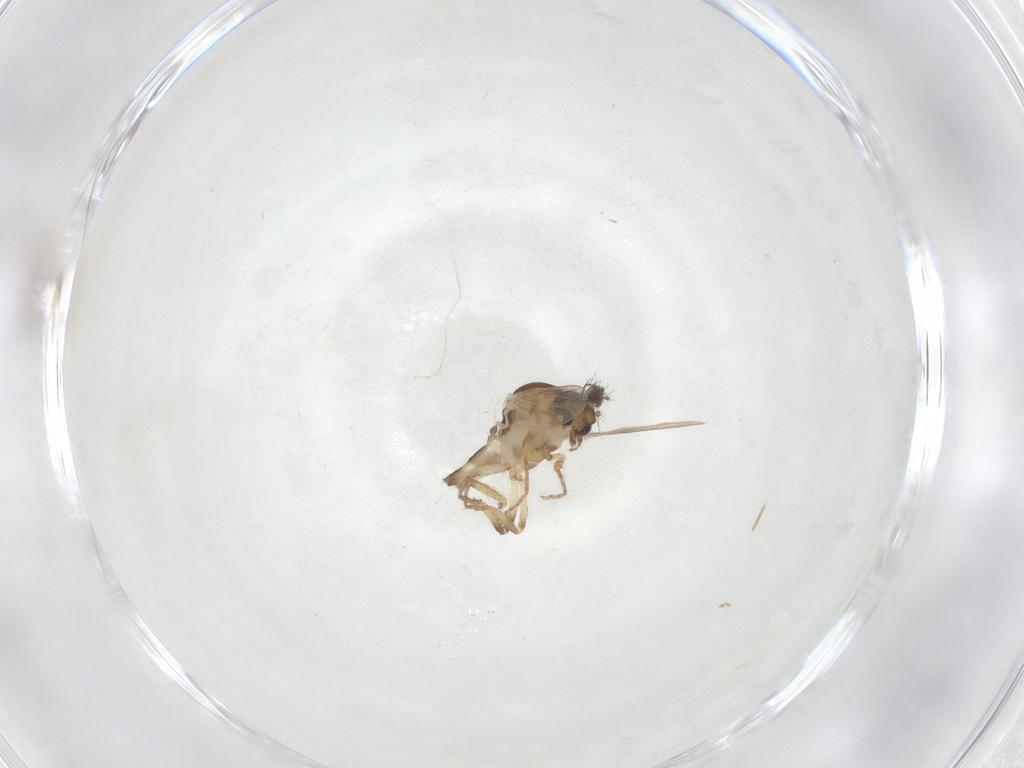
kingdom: Animalia
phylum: Arthropoda
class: Insecta
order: Diptera
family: Ceratopogonidae
